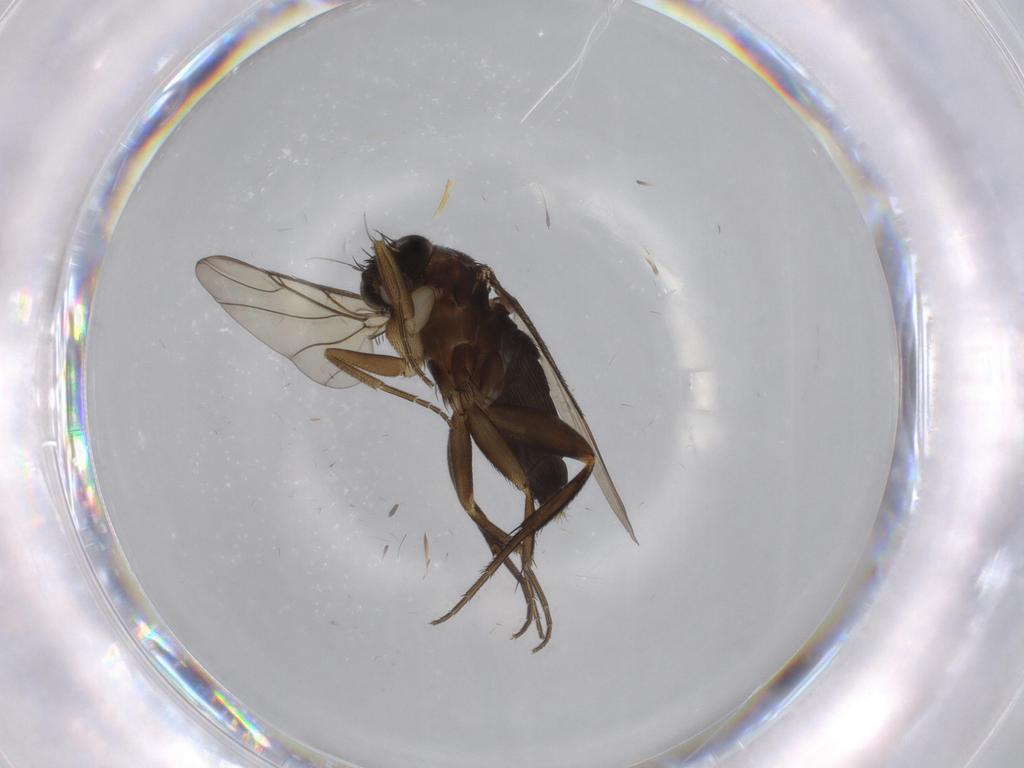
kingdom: Animalia
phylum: Arthropoda
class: Insecta
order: Diptera
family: Phoridae
